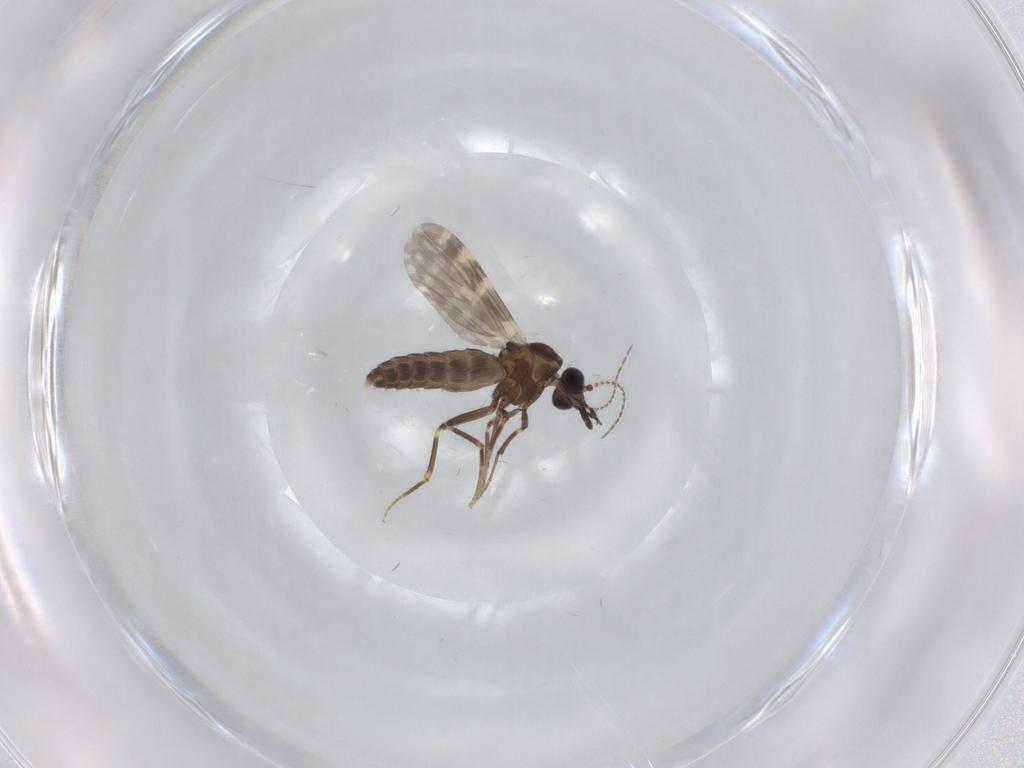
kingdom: Animalia
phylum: Arthropoda
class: Insecta
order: Diptera
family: Ceratopogonidae
